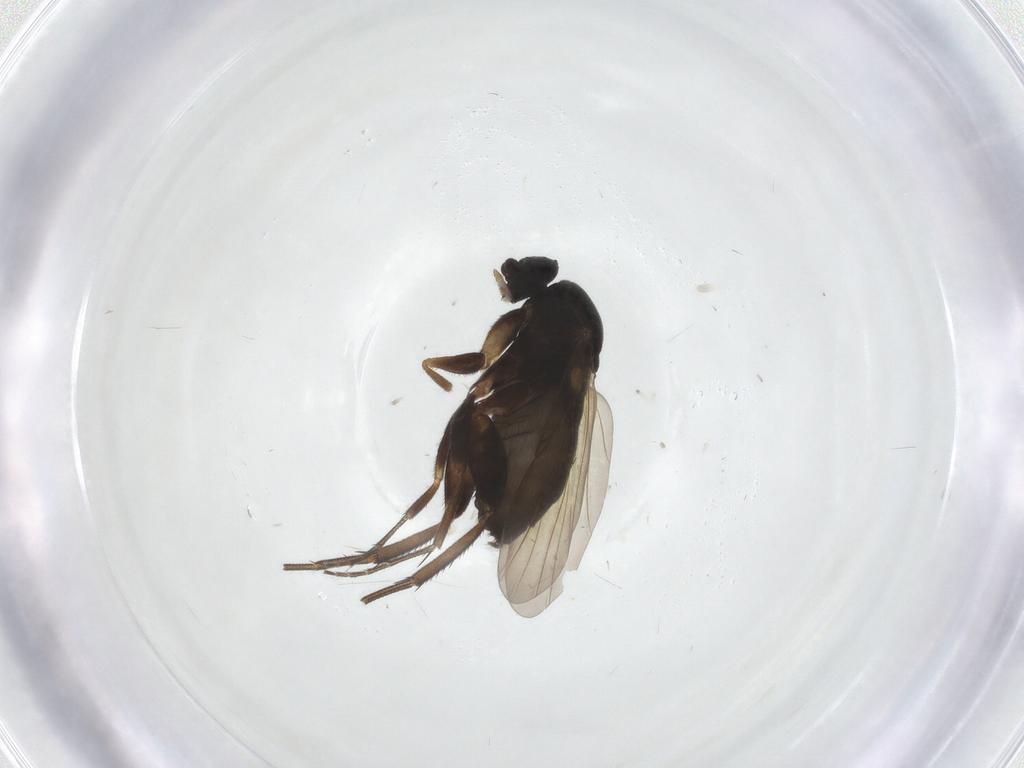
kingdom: Animalia
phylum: Arthropoda
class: Insecta
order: Diptera
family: Phoridae
